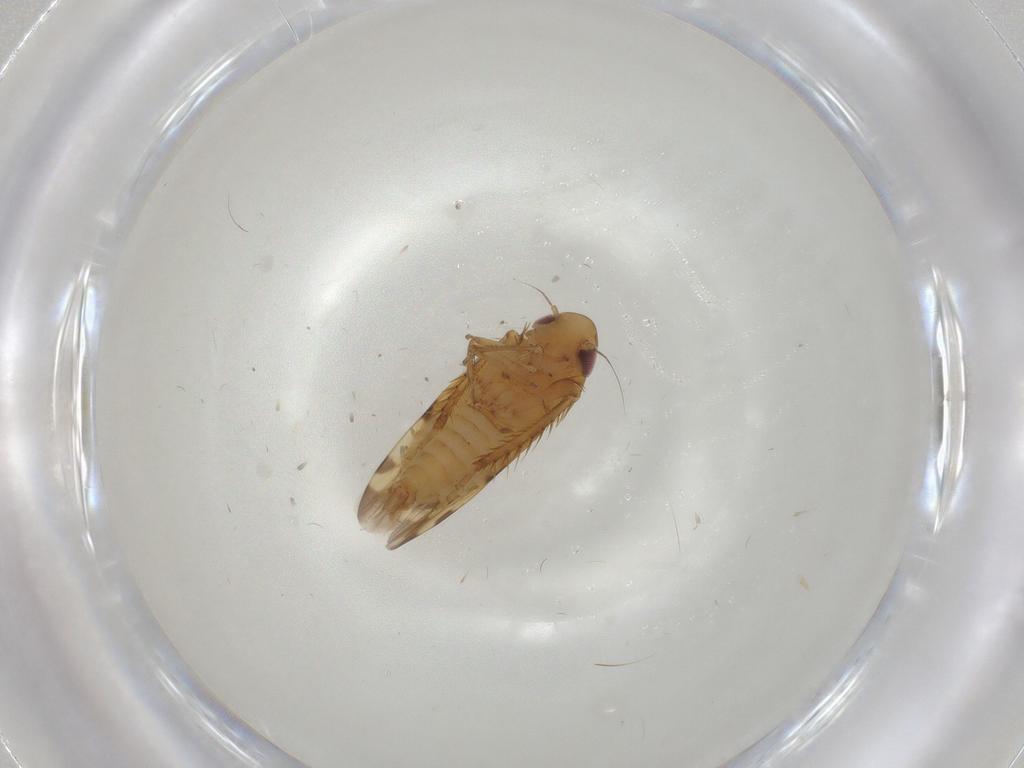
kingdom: Animalia
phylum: Arthropoda
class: Insecta
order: Hemiptera
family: Cicadellidae
